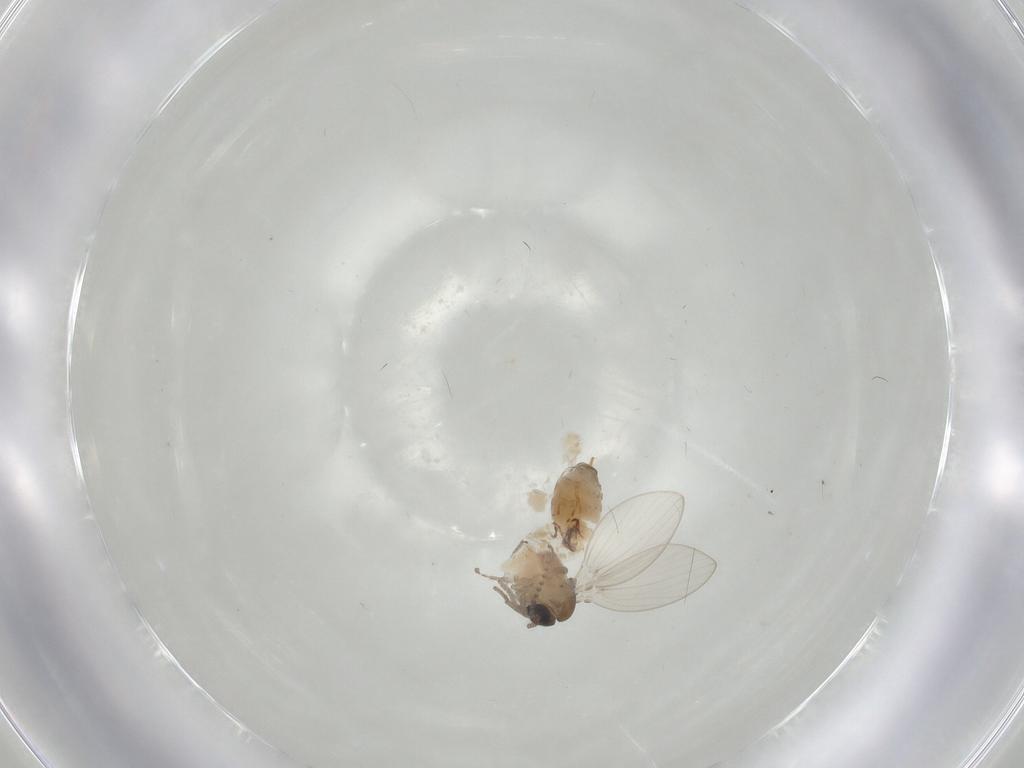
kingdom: Animalia
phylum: Arthropoda
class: Insecta
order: Diptera
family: Psychodidae
